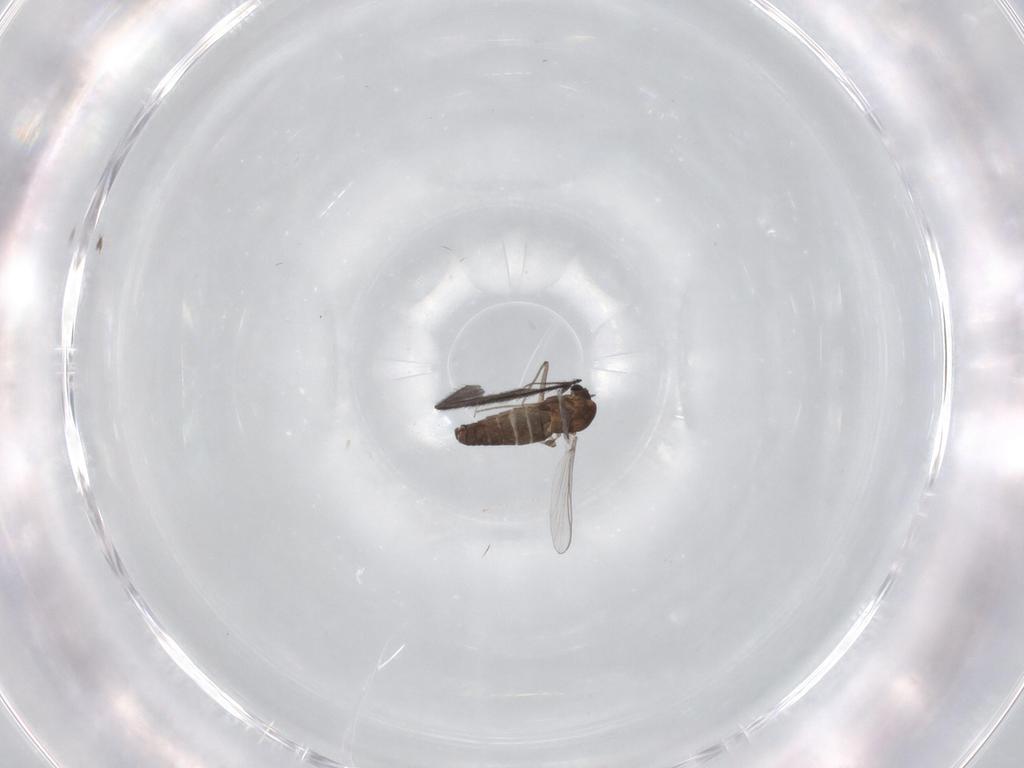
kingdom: Animalia
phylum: Arthropoda
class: Insecta
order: Diptera
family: Chironomidae
